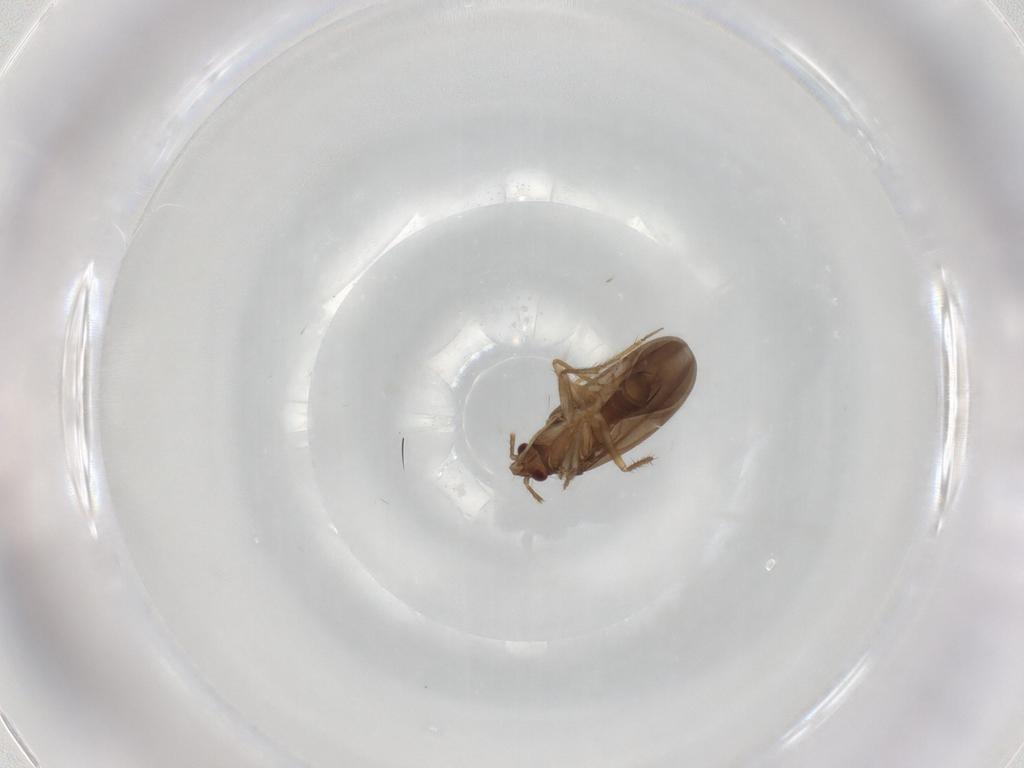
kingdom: Animalia
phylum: Arthropoda
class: Insecta
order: Hemiptera
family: Ceratocombidae
